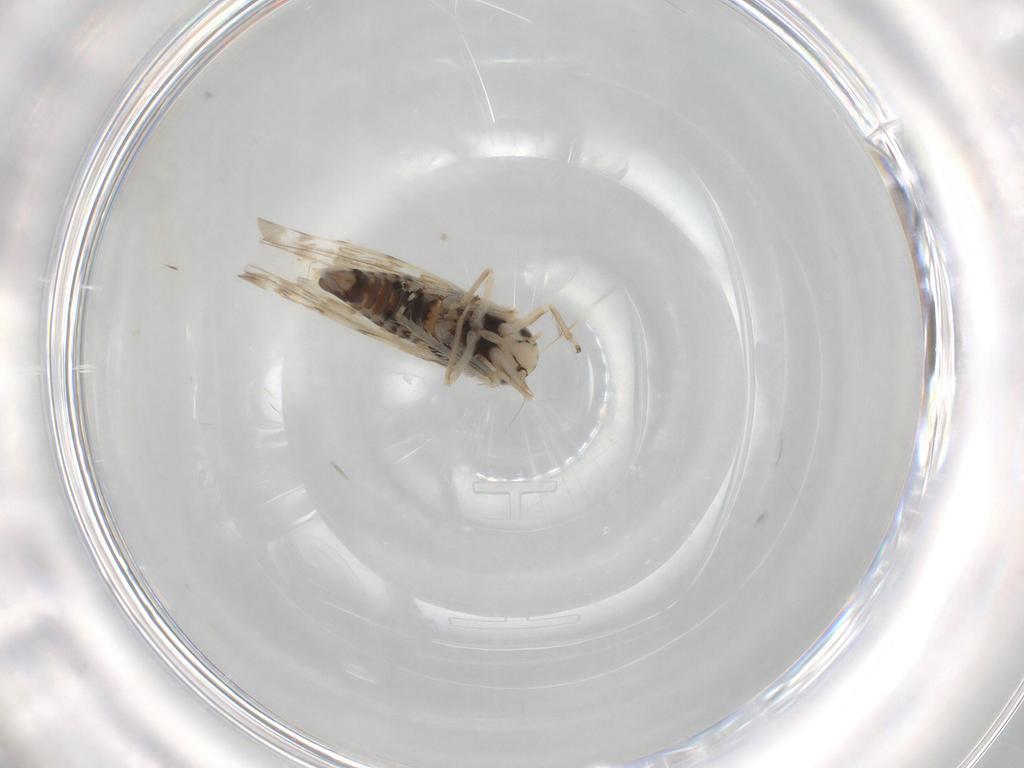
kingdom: Animalia
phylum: Arthropoda
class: Insecta
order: Hemiptera
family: Cicadellidae
